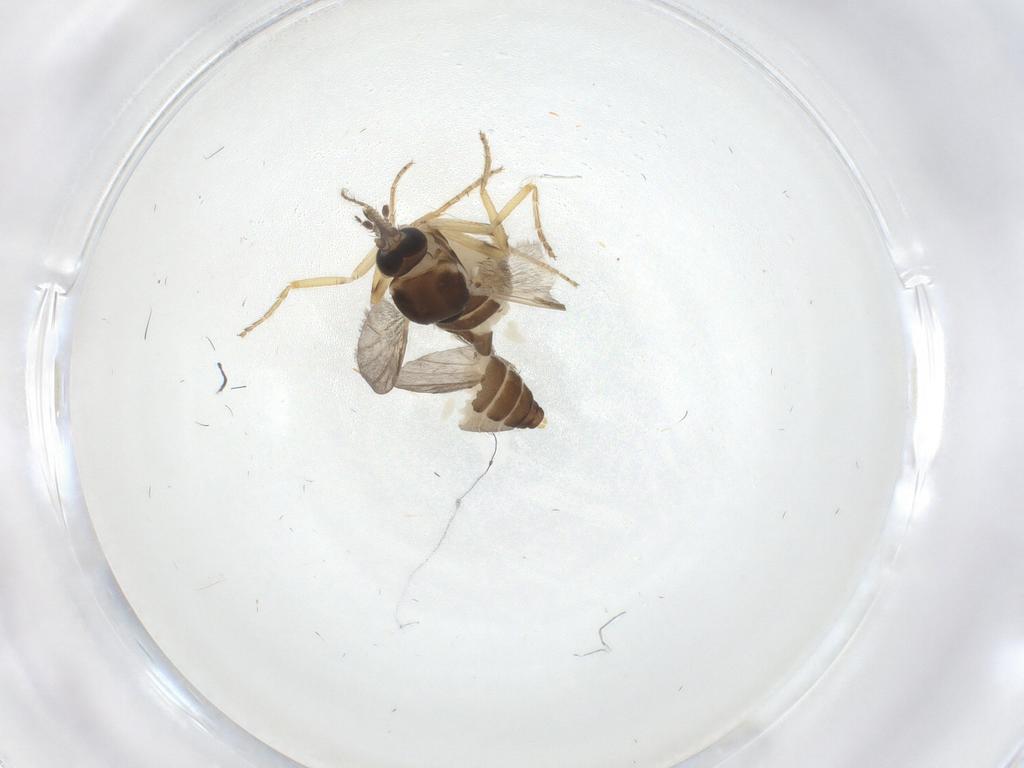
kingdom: Animalia
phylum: Arthropoda
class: Insecta
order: Diptera
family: Ceratopogonidae
